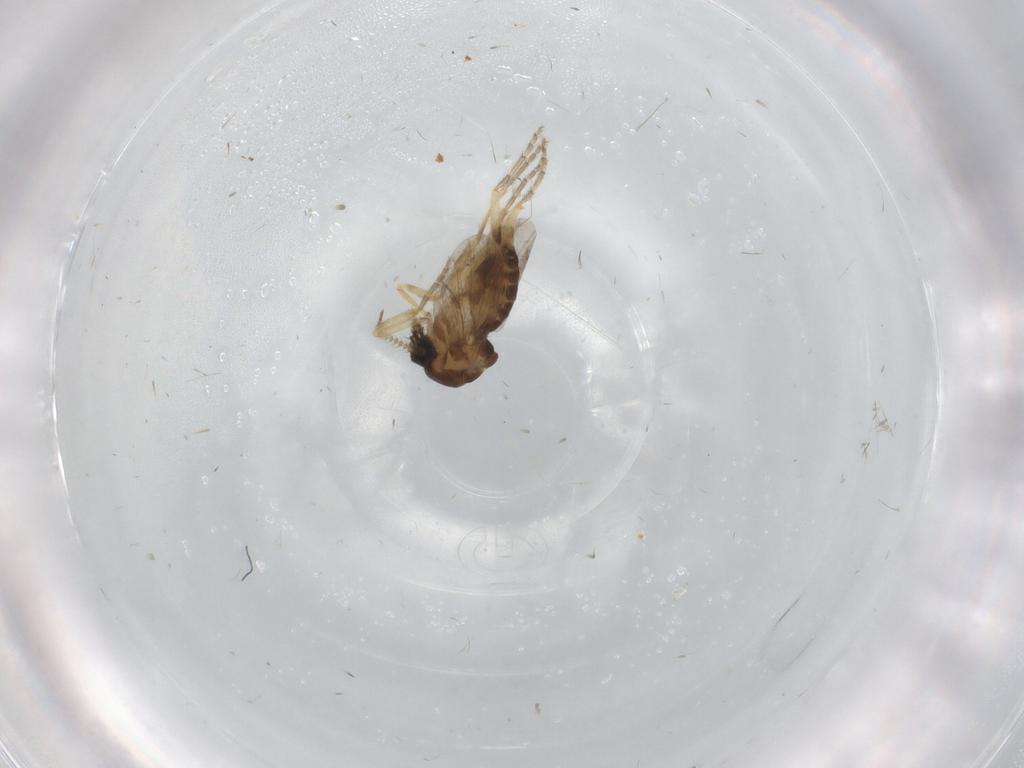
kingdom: Animalia
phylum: Arthropoda
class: Insecta
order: Diptera
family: Ceratopogonidae
